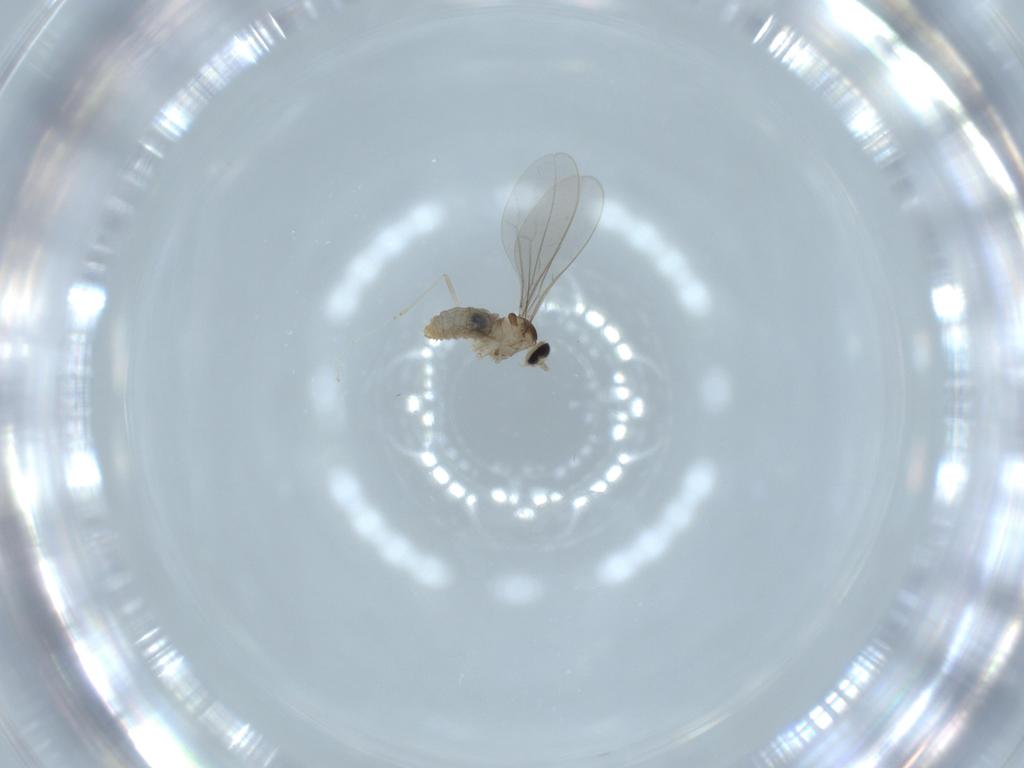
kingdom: Animalia
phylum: Arthropoda
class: Insecta
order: Diptera
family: Cecidomyiidae
